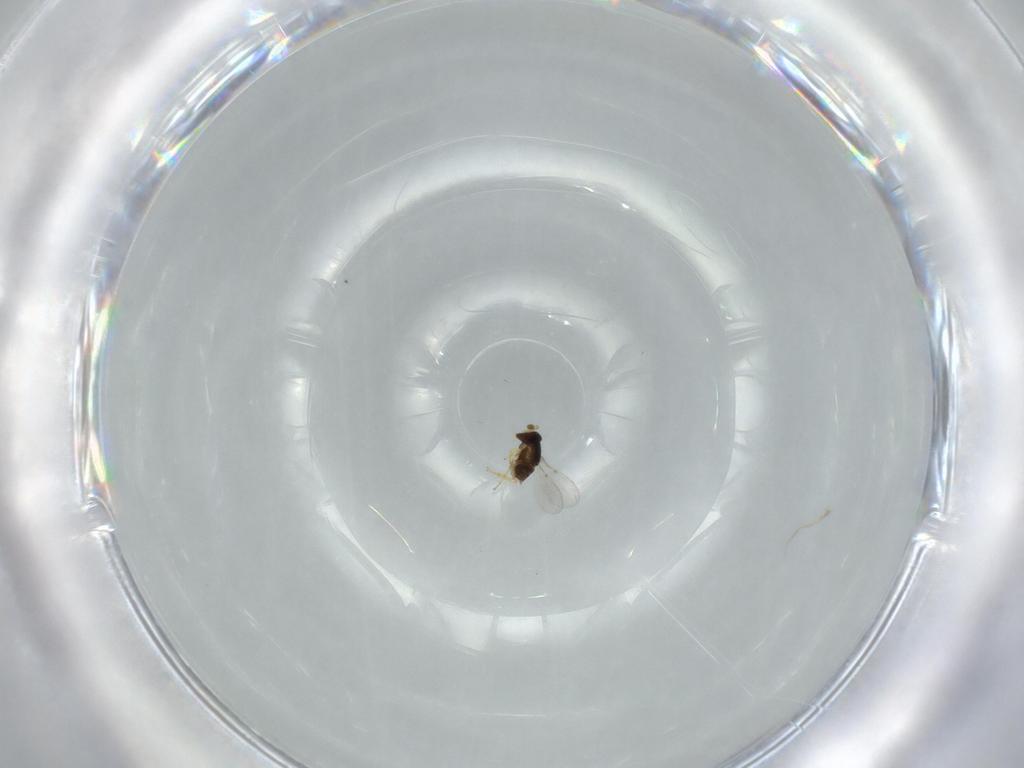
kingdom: Animalia
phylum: Arthropoda
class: Insecta
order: Hymenoptera
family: Encyrtidae
